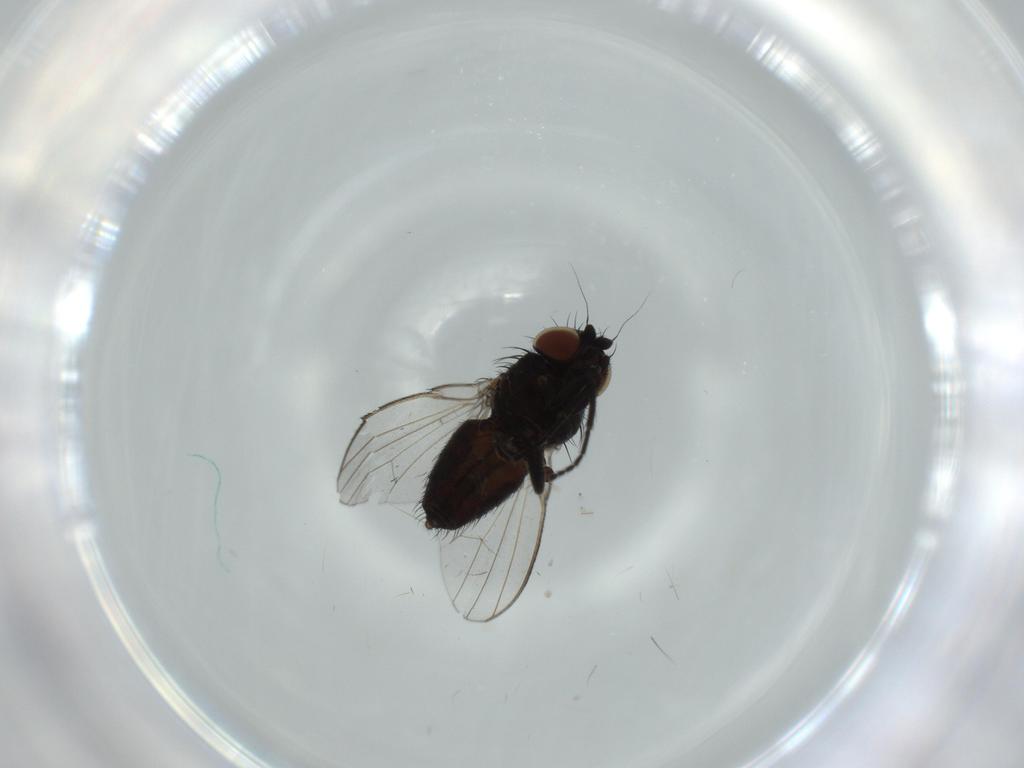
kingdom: Animalia
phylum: Arthropoda
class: Insecta
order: Diptera
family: Milichiidae
